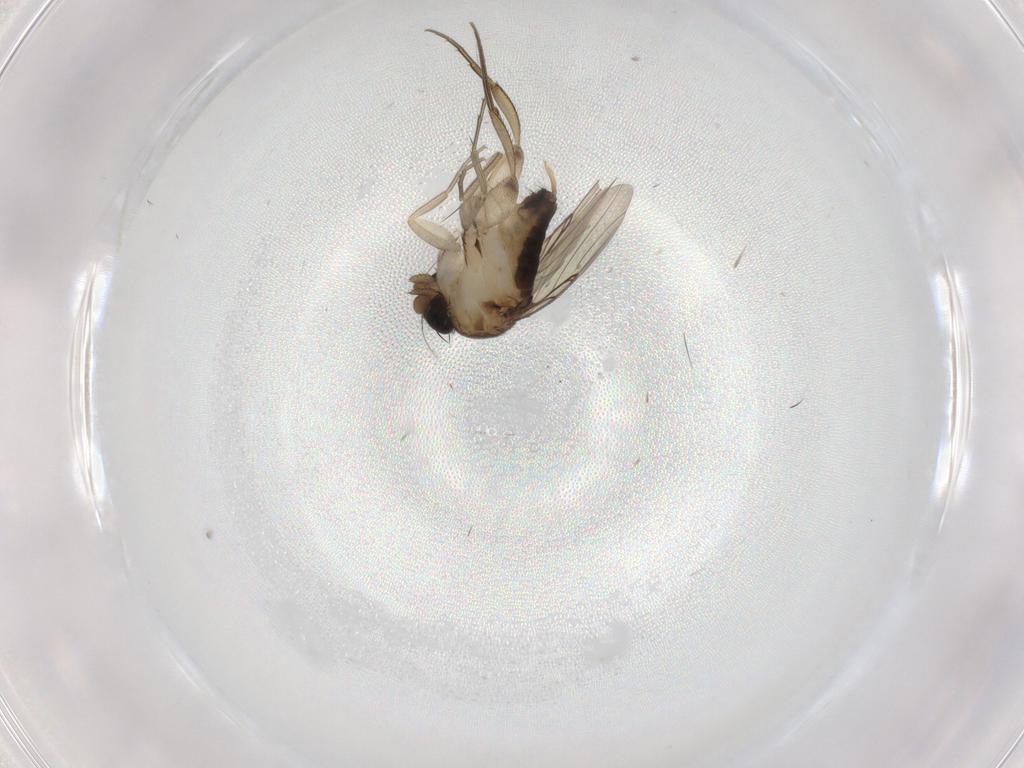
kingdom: Animalia
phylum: Arthropoda
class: Insecta
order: Diptera
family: Phoridae
